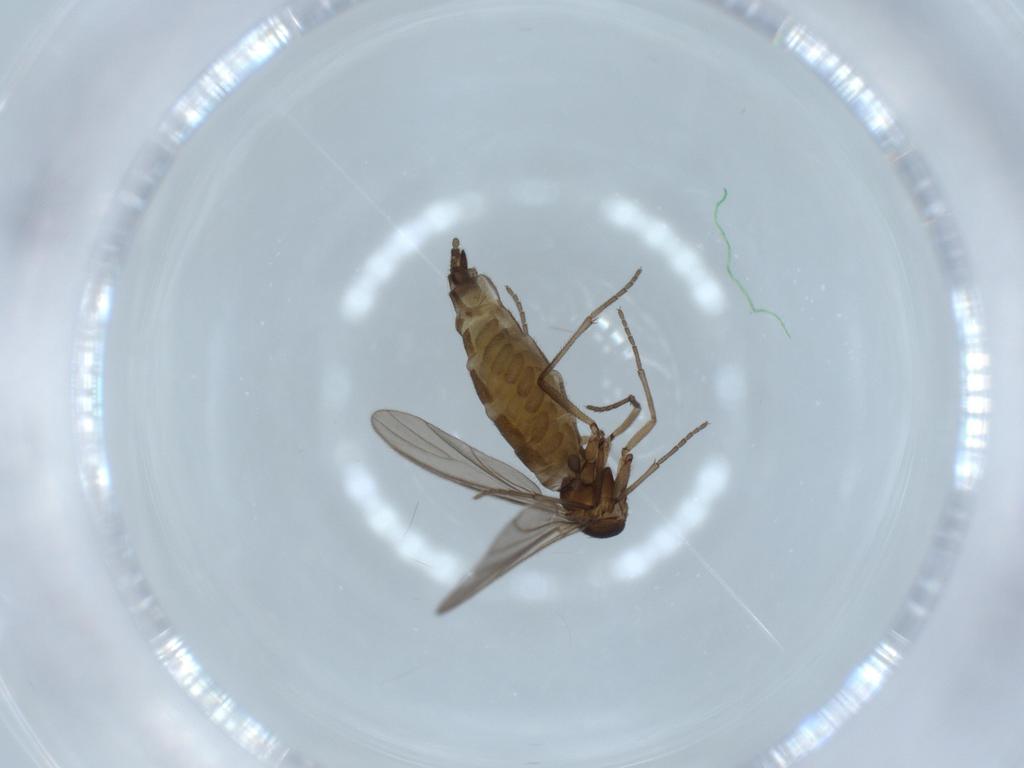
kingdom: Animalia
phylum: Arthropoda
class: Insecta
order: Diptera
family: Sciaridae
